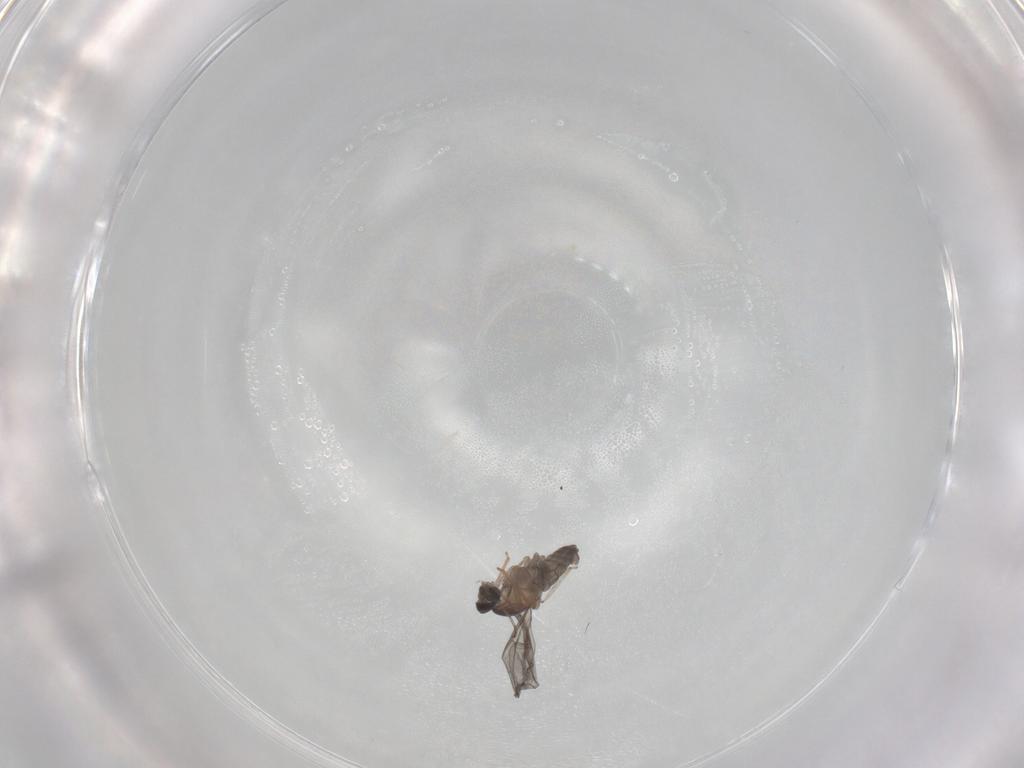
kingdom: Animalia
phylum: Arthropoda
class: Insecta
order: Diptera
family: Cecidomyiidae
